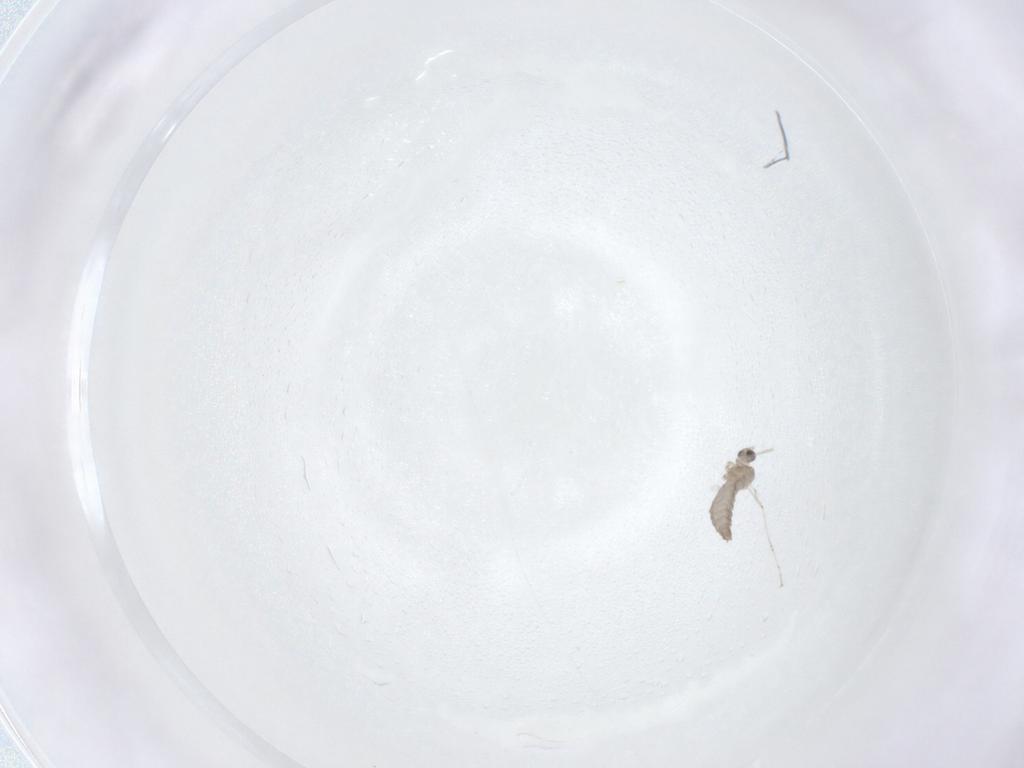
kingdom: Animalia
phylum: Arthropoda
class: Insecta
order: Diptera
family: Cecidomyiidae
